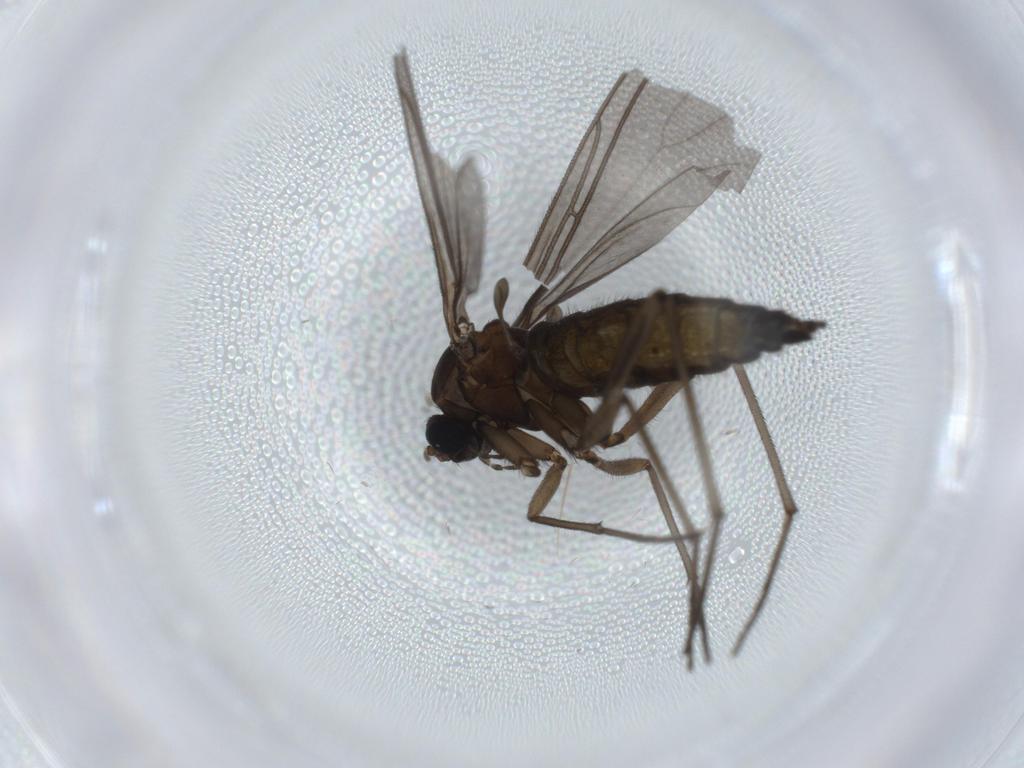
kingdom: Animalia
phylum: Arthropoda
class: Insecta
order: Diptera
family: Sciaridae
